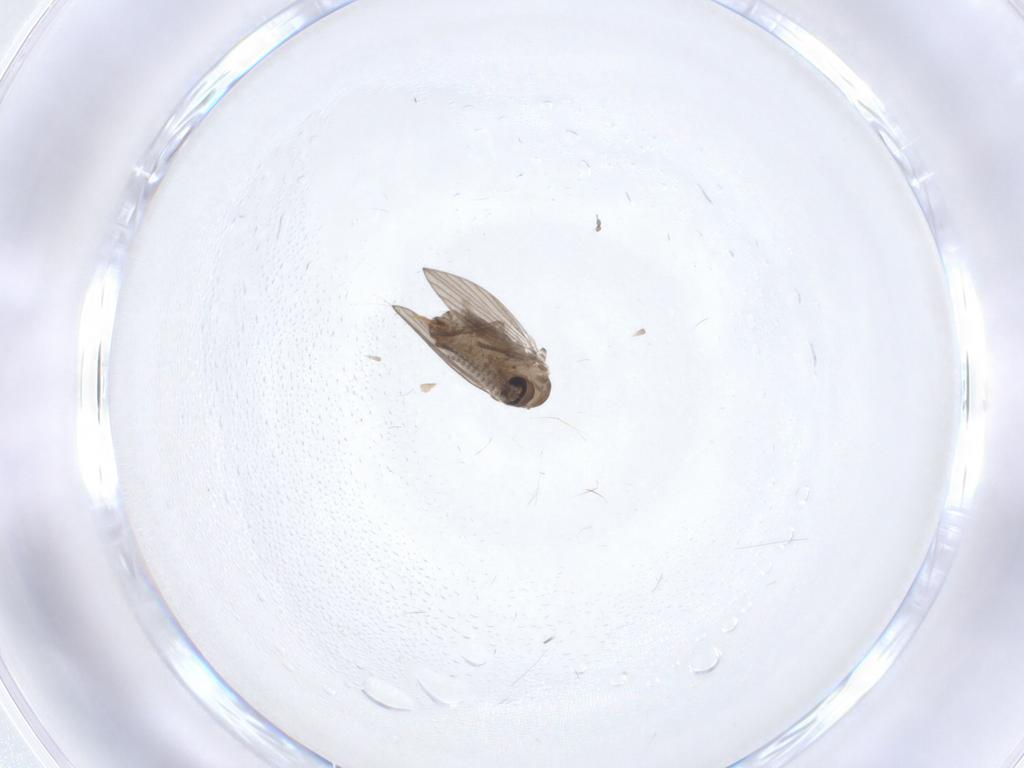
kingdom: Animalia
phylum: Arthropoda
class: Insecta
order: Diptera
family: Psychodidae
